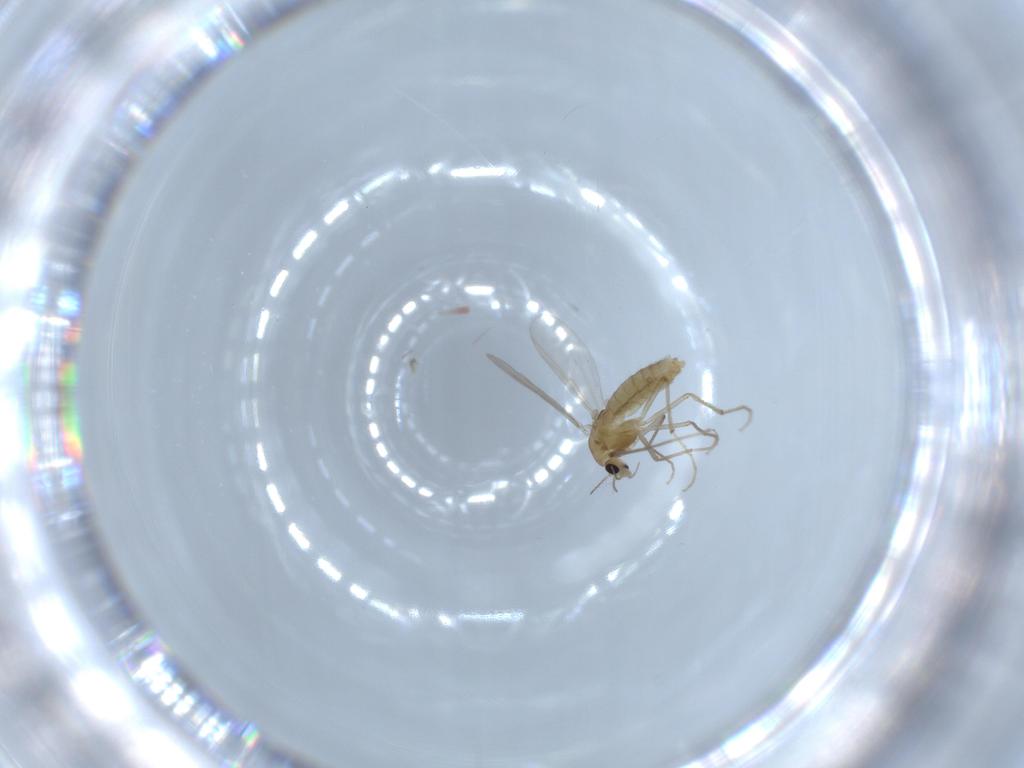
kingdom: Animalia
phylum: Arthropoda
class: Insecta
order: Diptera
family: Chironomidae
